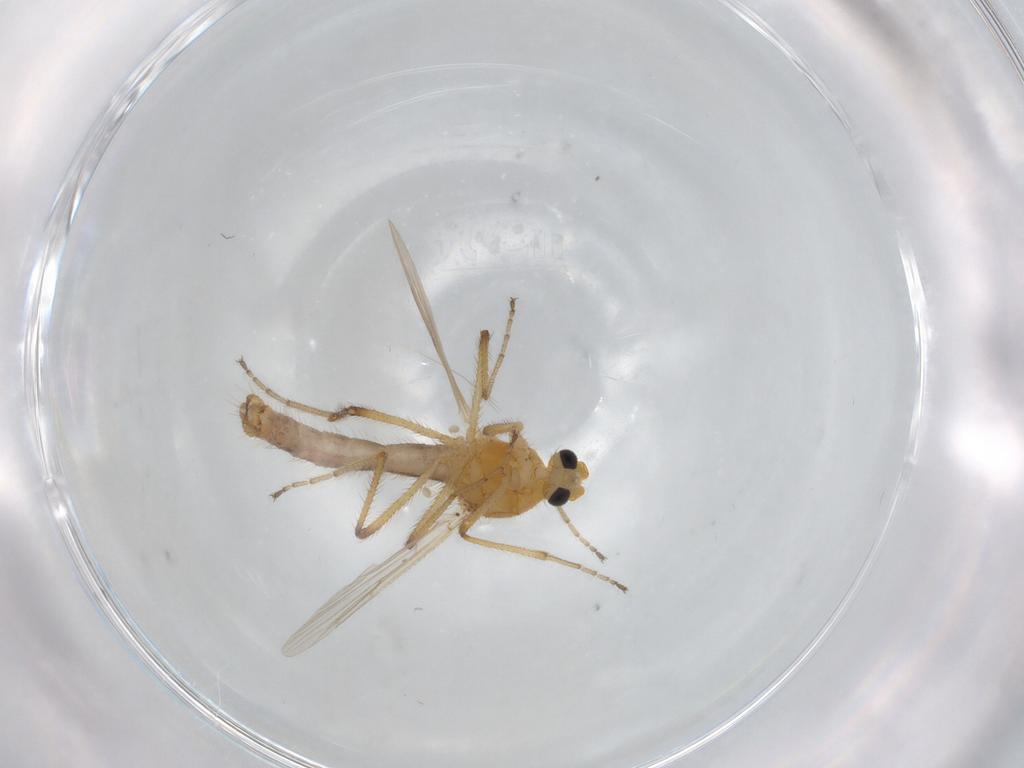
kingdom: Animalia
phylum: Arthropoda
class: Insecta
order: Diptera
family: Ceratopogonidae
